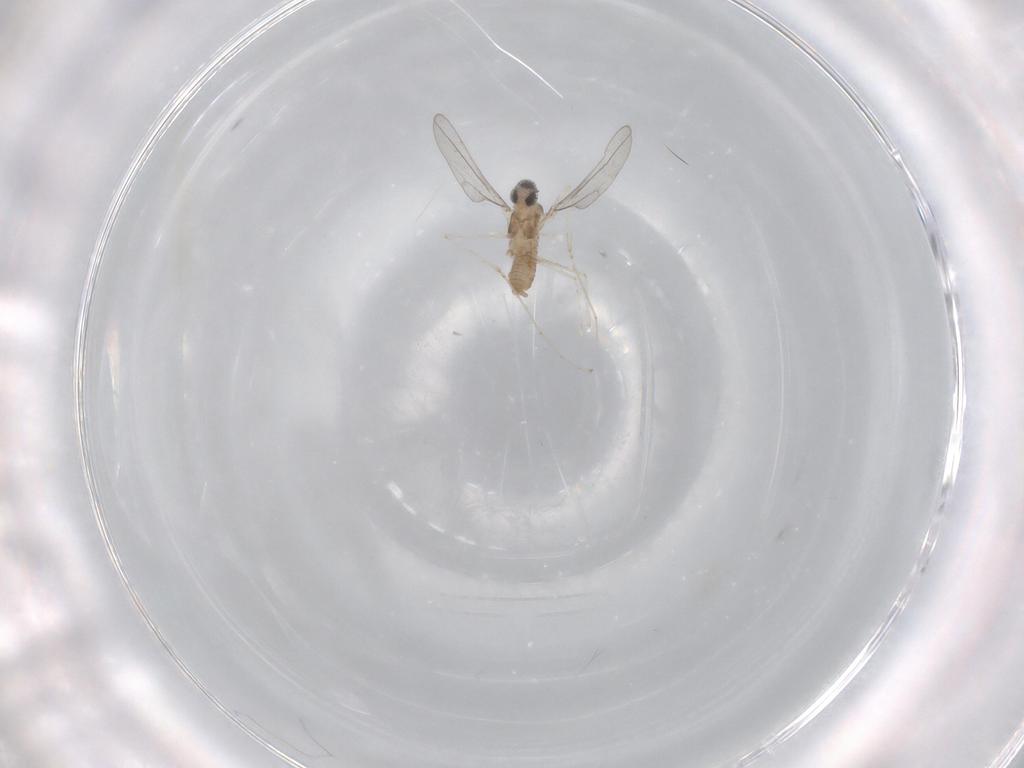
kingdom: Animalia
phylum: Arthropoda
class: Insecta
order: Diptera
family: Cecidomyiidae
